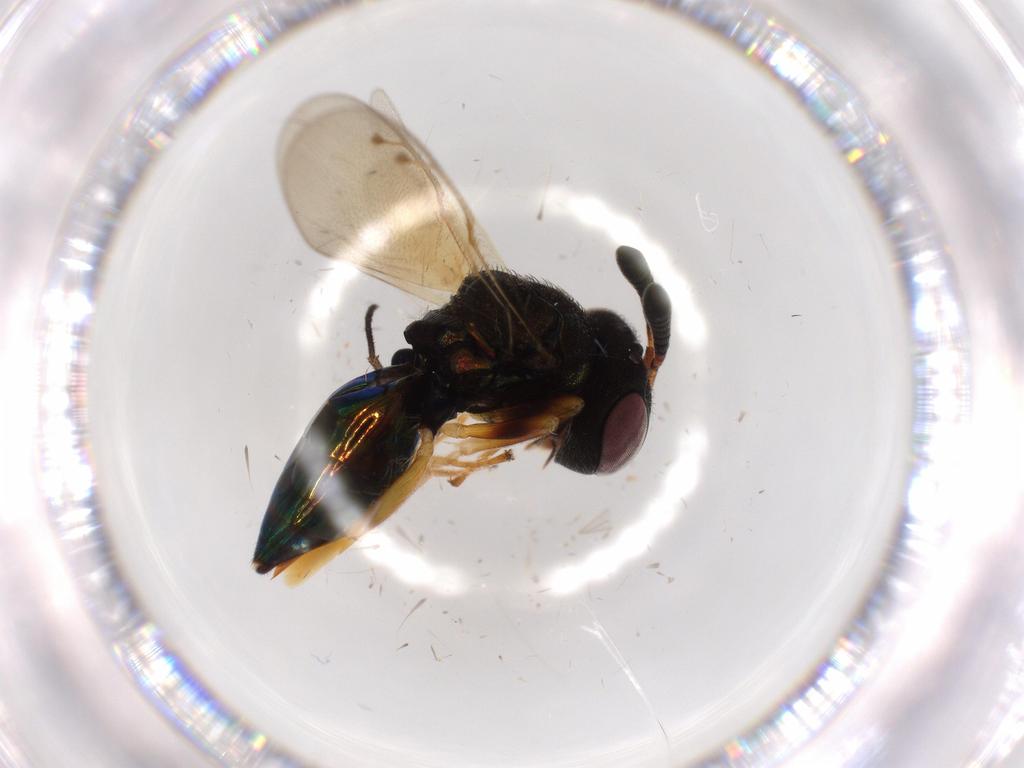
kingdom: Animalia
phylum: Arthropoda
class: Insecta
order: Hymenoptera
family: Agaonidae
